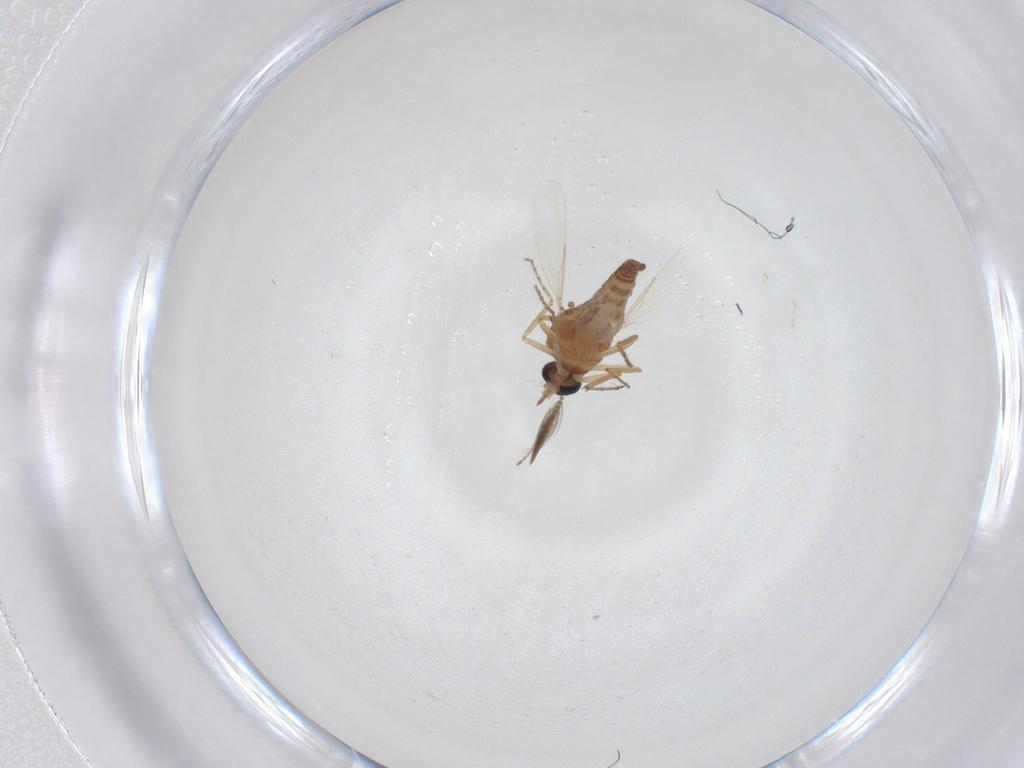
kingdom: Animalia
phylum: Arthropoda
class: Insecta
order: Diptera
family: Ceratopogonidae
